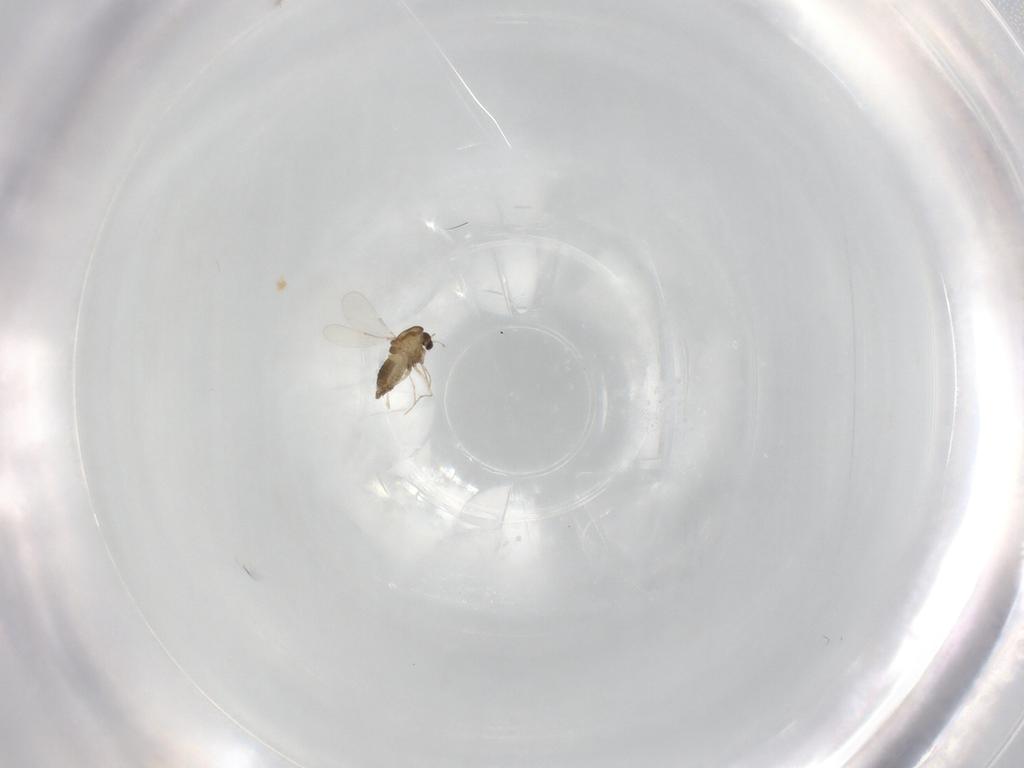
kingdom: Animalia
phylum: Arthropoda
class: Insecta
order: Diptera
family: Chironomidae
